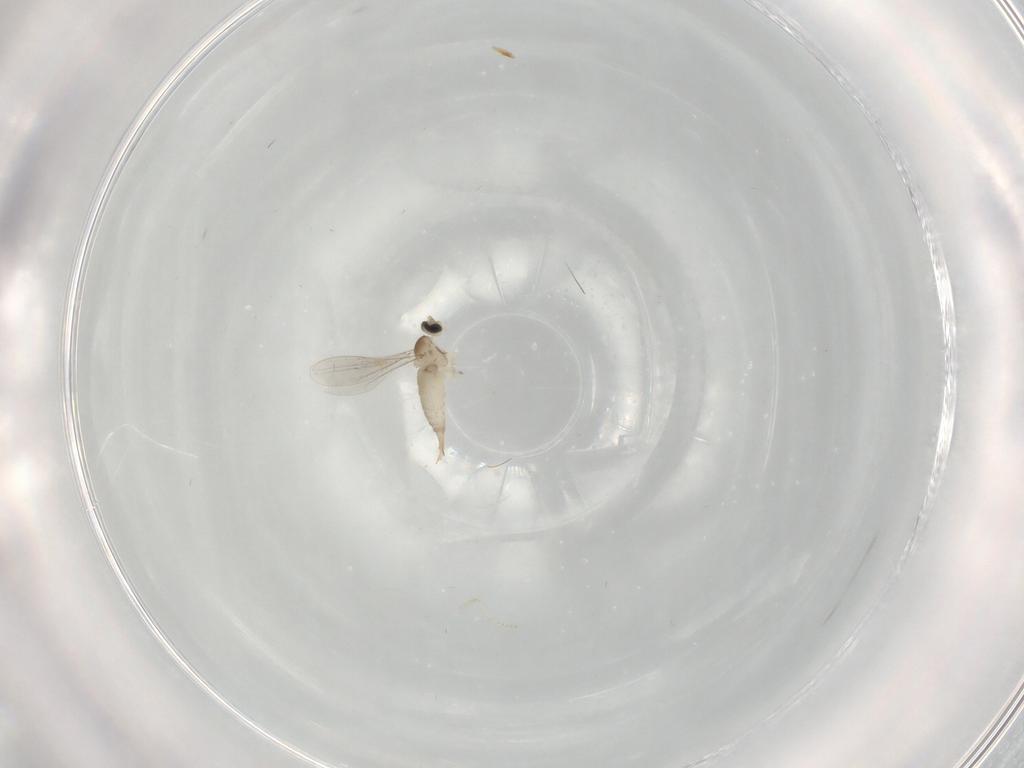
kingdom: Animalia
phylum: Arthropoda
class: Insecta
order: Diptera
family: Cecidomyiidae
